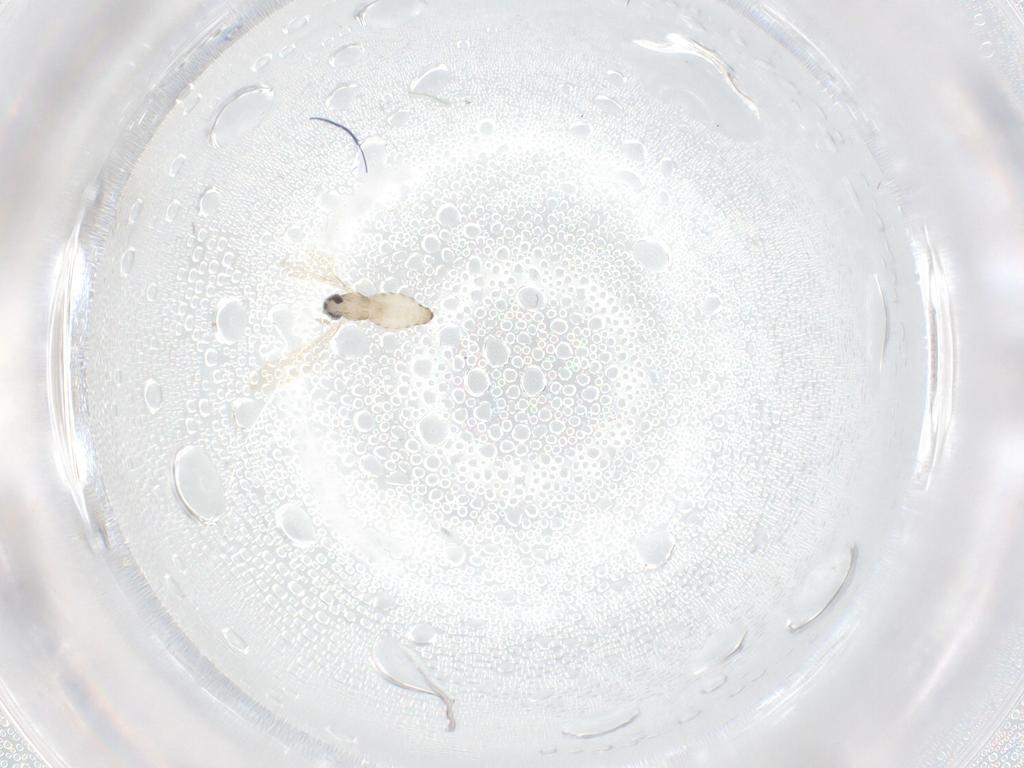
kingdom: Animalia
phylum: Arthropoda
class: Insecta
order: Diptera
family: Cecidomyiidae
